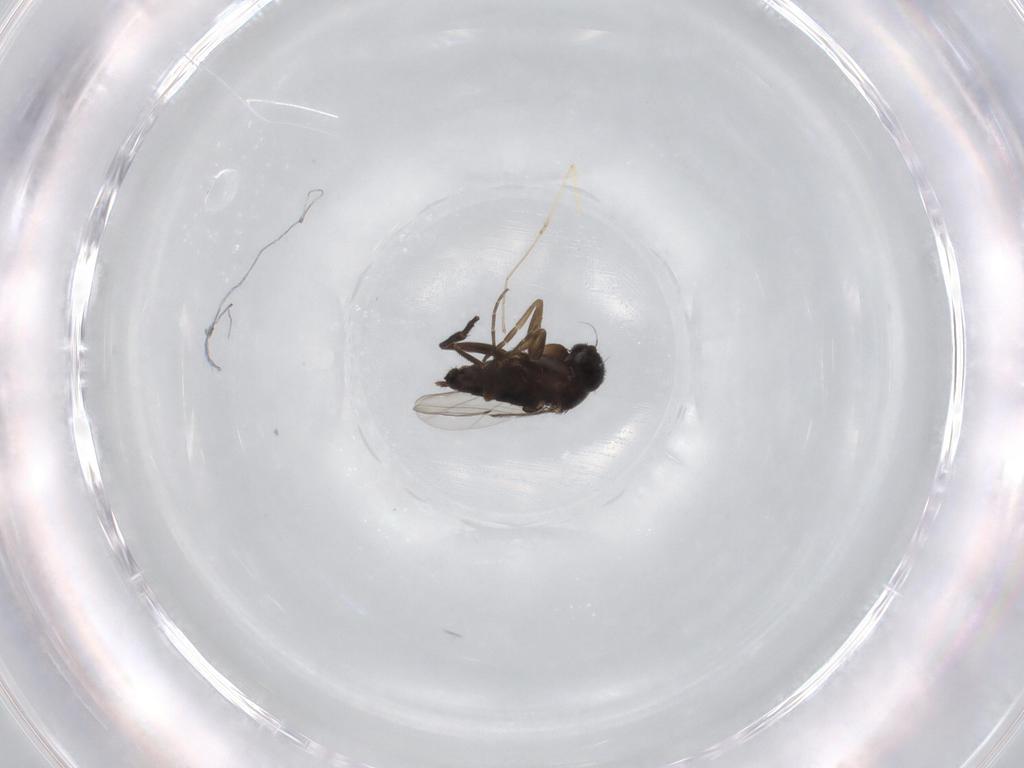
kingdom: Animalia
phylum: Arthropoda
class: Insecta
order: Diptera
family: Phoridae
